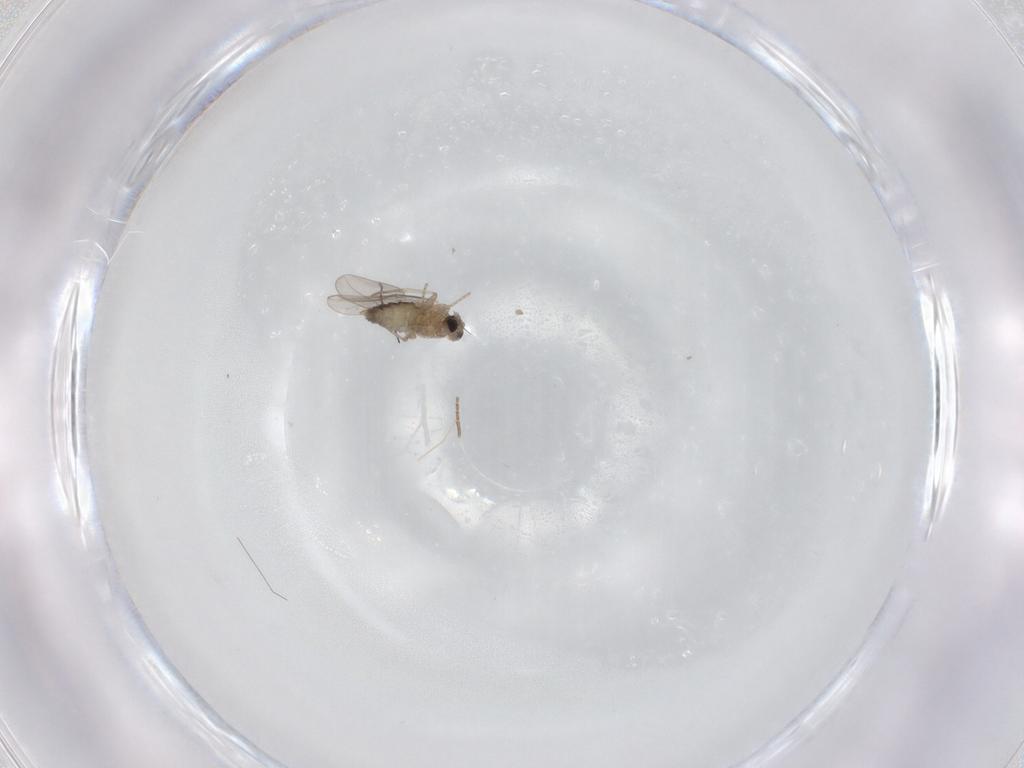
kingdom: Animalia
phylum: Arthropoda
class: Insecta
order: Diptera
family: Cecidomyiidae
